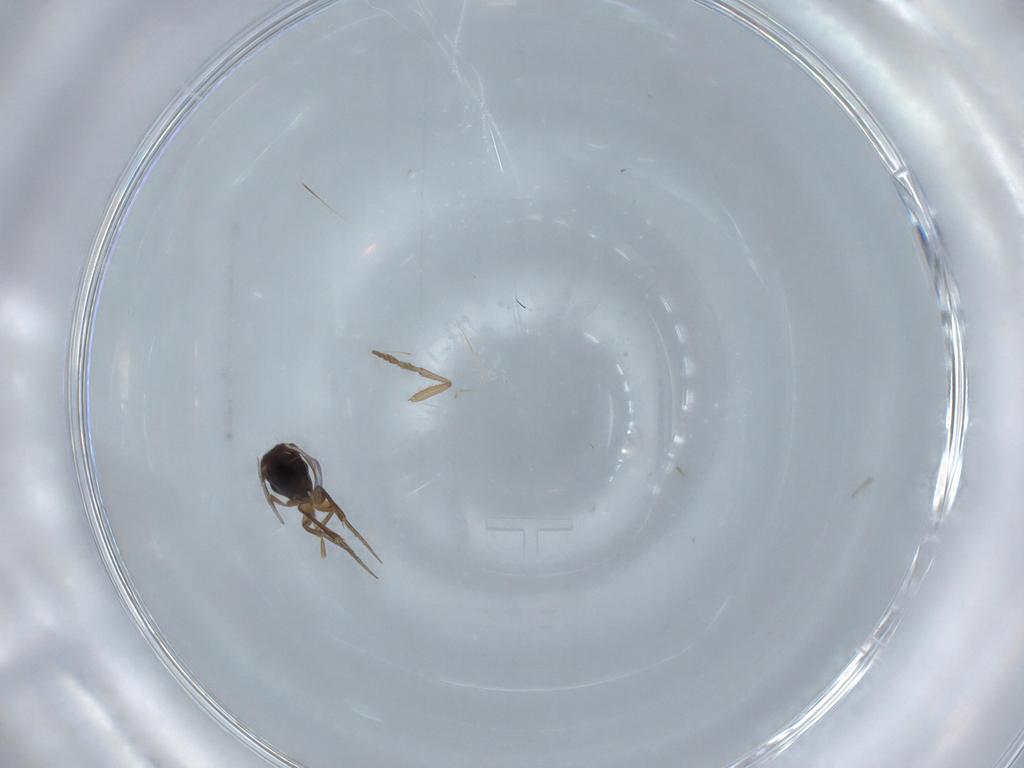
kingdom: Animalia
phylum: Arthropoda
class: Insecta
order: Diptera
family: Psychodidae
